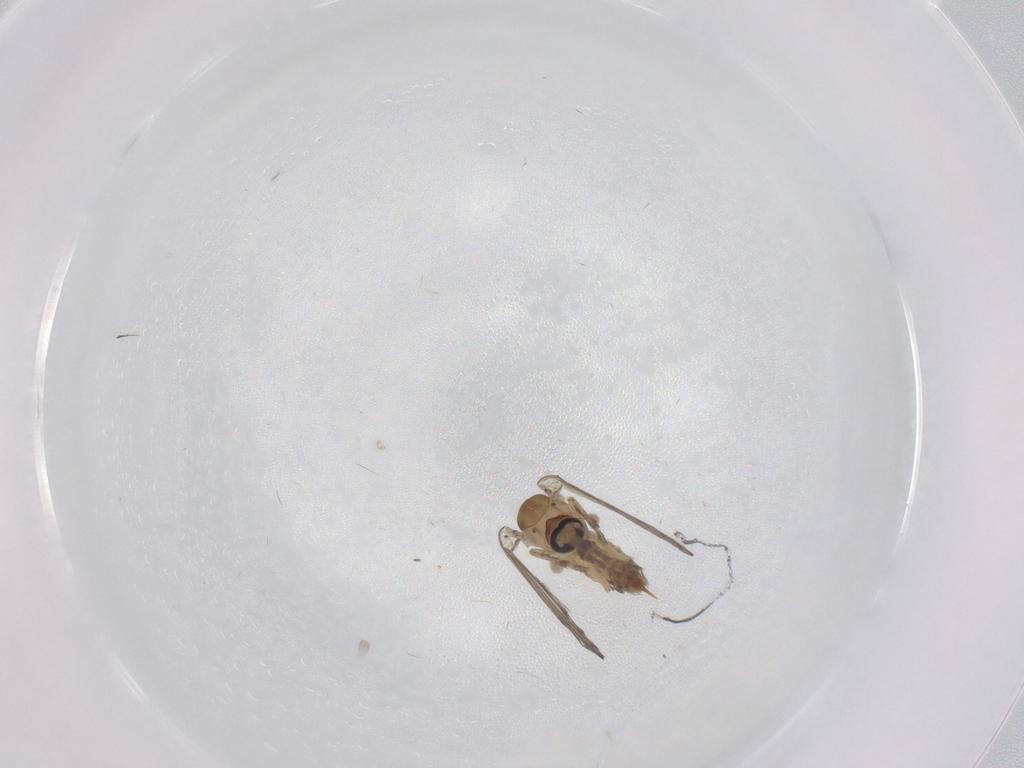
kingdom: Animalia
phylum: Arthropoda
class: Insecta
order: Diptera
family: Psychodidae
